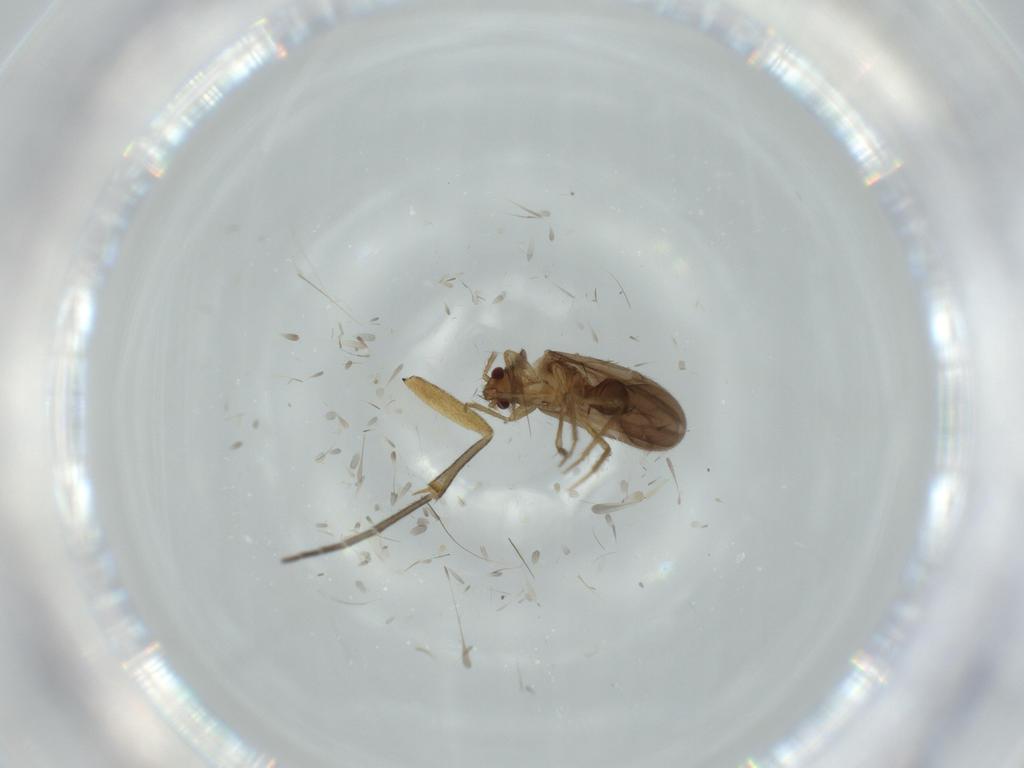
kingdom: Animalia
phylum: Arthropoda
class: Insecta
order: Hemiptera
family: Ceratocombidae
